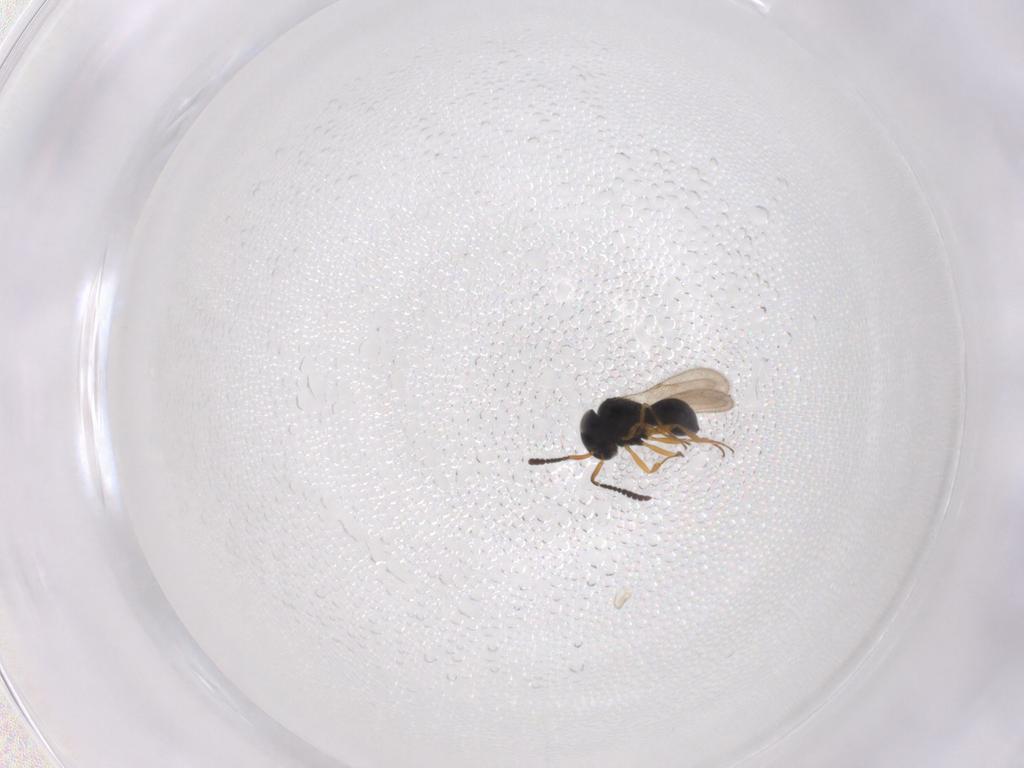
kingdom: Animalia
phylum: Arthropoda
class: Insecta
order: Hymenoptera
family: Scelionidae
